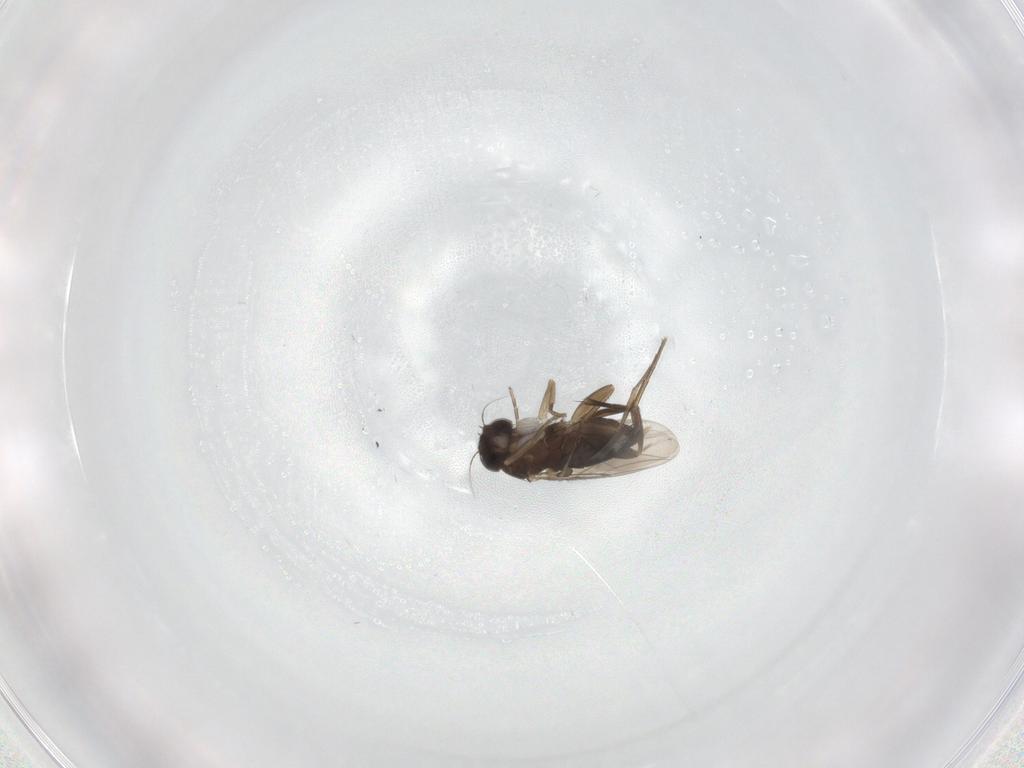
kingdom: Animalia
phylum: Arthropoda
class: Insecta
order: Diptera
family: Phoridae
